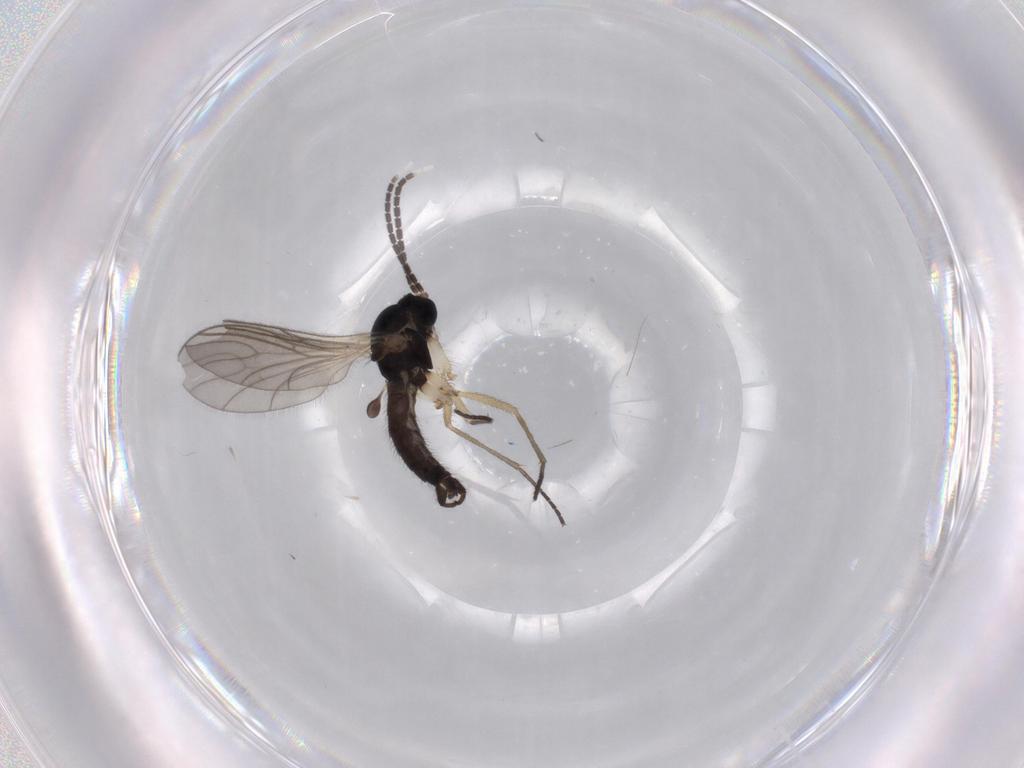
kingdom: Animalia
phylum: Arthropoda
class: Insecta
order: Diptera
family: Sciaridae
